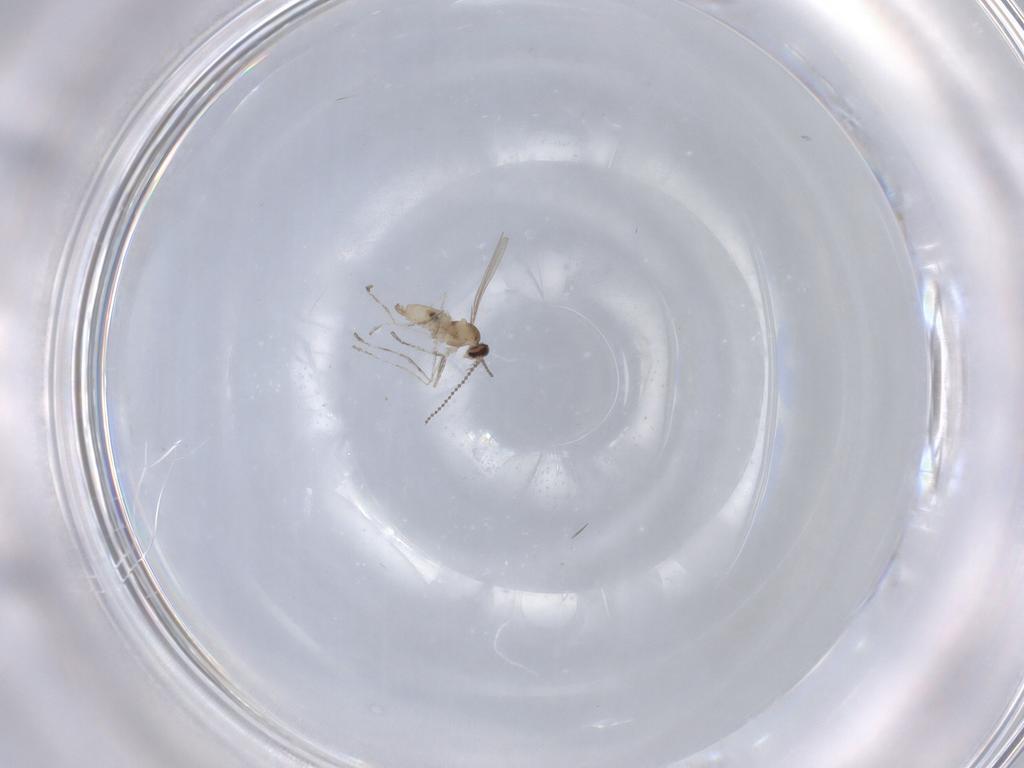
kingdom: Animalia
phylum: Arthropoda
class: Insecta
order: Diptera
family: Cecidomyiidae
